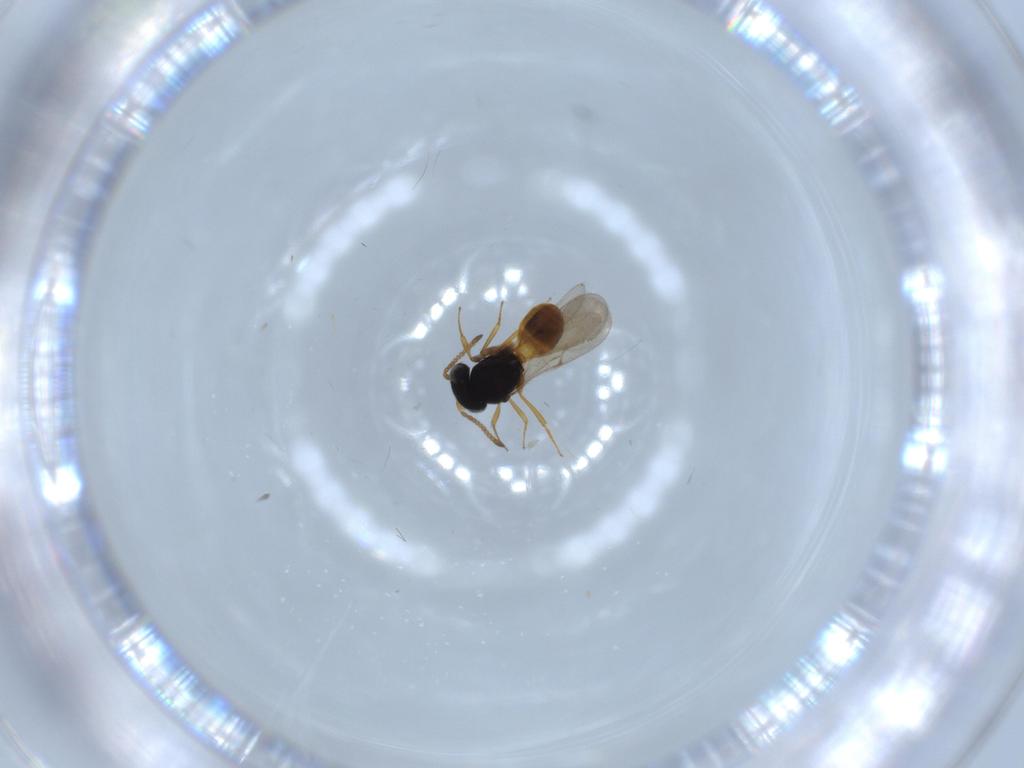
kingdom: Animalia
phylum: Arthropoda
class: Insecta
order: Hymenoptera
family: Scelionidae
